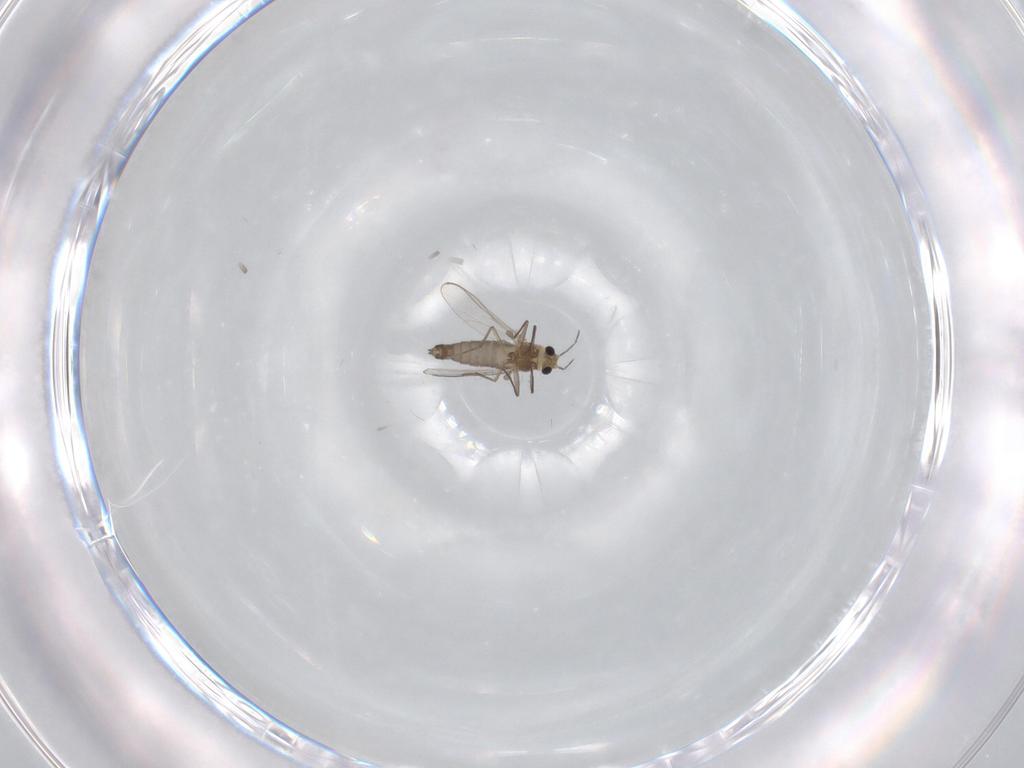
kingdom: Animalia
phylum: Arthropoda
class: Insecta
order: Diptera
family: Chironomidae
